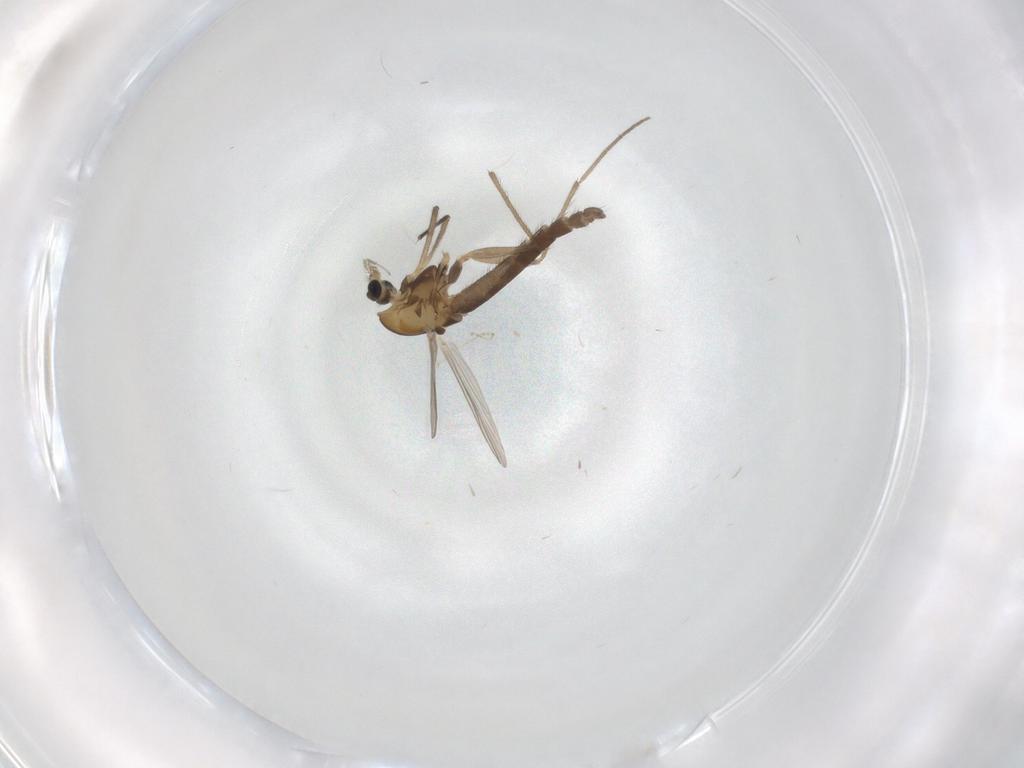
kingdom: Animalia
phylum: Arthropoda
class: Insecta
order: Diptera
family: Chironomidae
